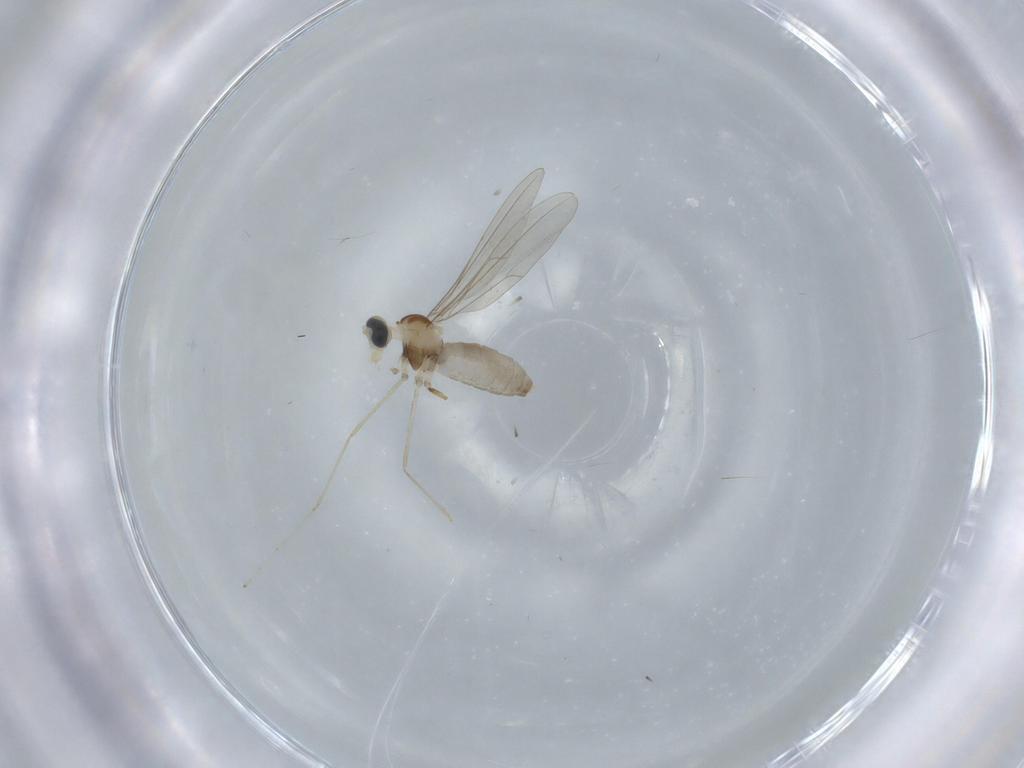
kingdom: Animalia
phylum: Arthropoda
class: Insecta
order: Diptera
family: Cecidomyiidae
